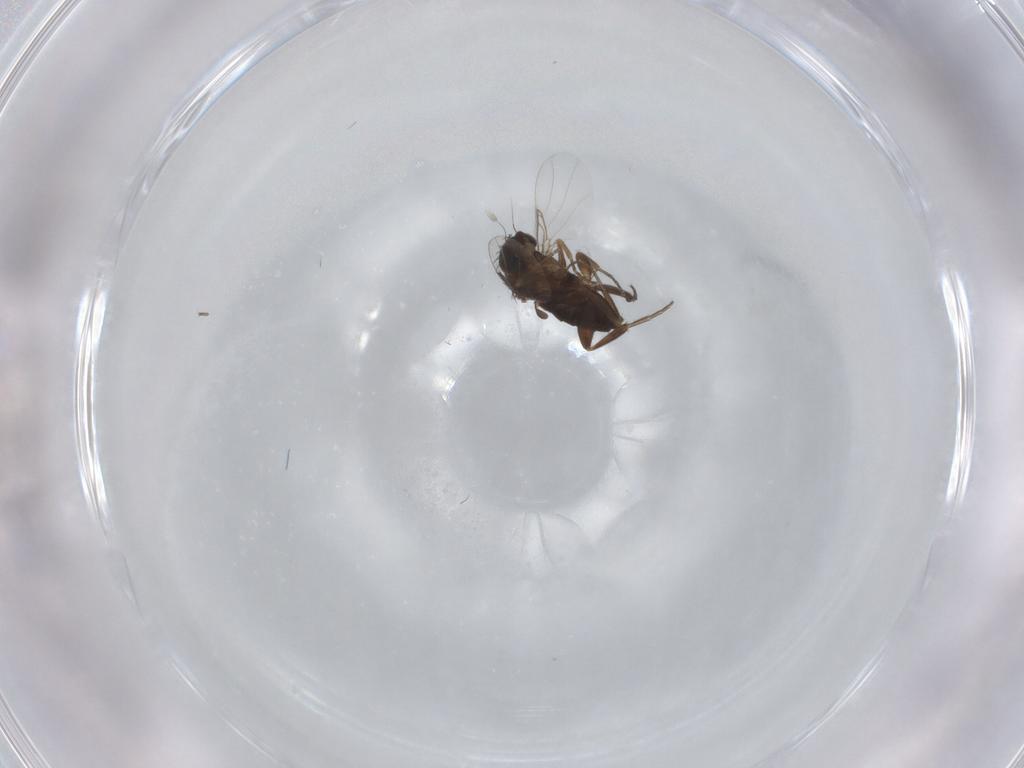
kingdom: Animalia
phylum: Arthropoda
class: Insecta
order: Diptera
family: Phoridae
